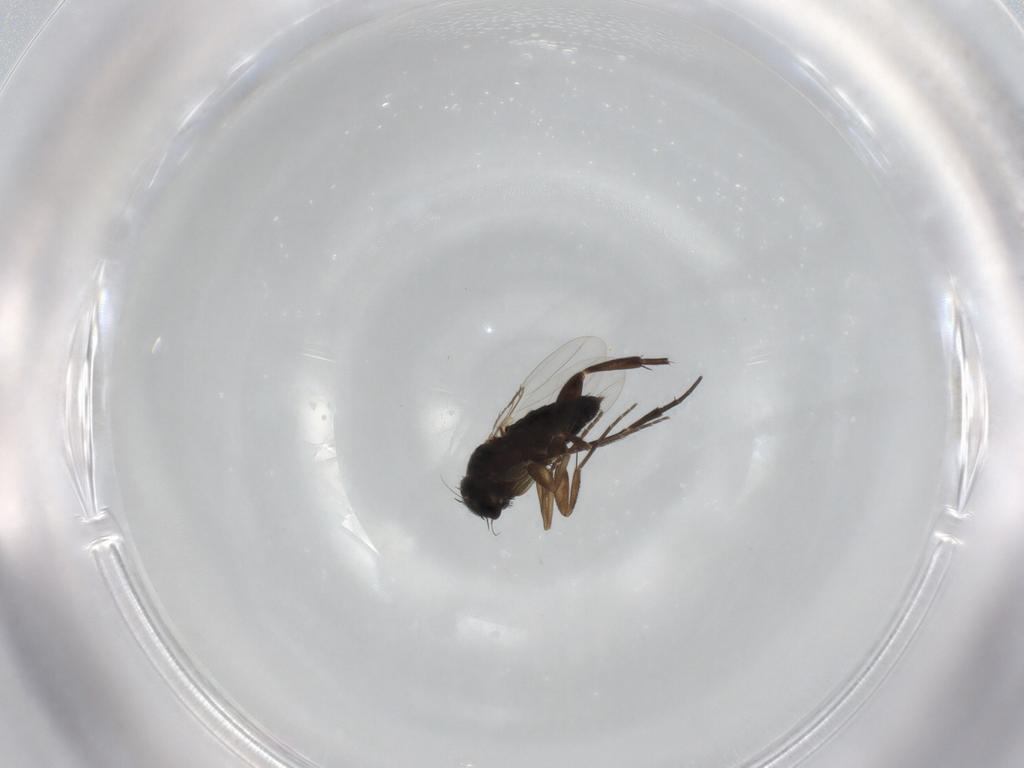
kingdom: Animalia
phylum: Arthropoda
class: Insecta
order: Diptera
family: Phoridae
